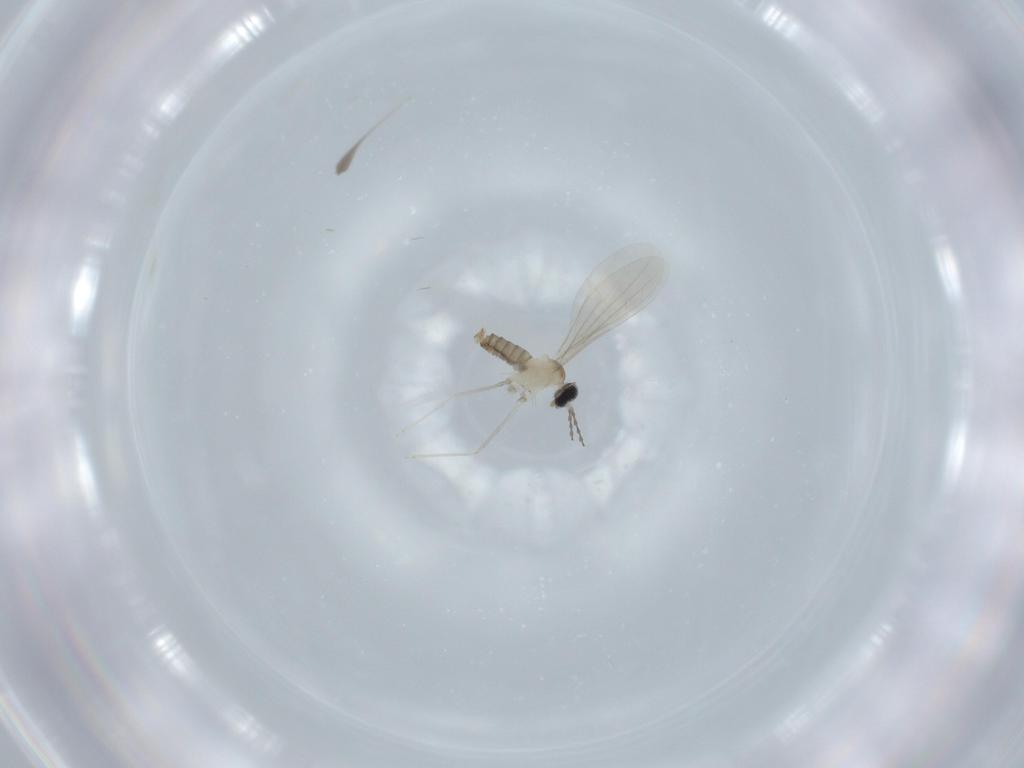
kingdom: Animalia
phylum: Arthropoda
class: Insecta
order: Diptera
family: Cecidomyiidae
